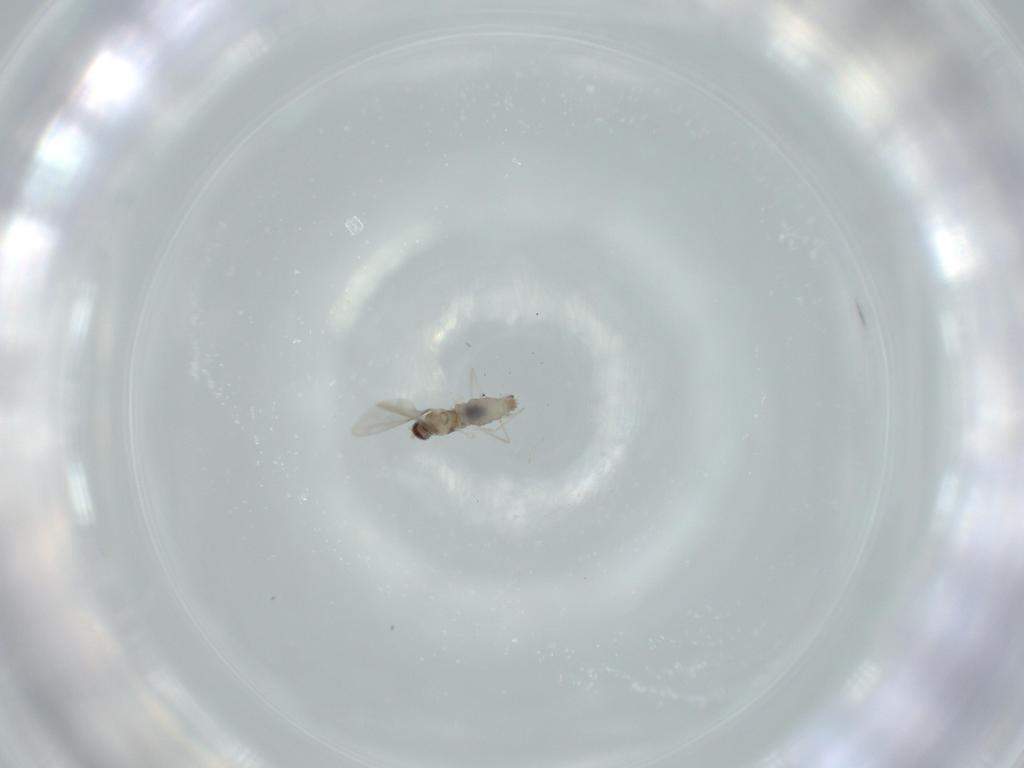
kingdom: Animalia
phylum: Arthropoda
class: Insecta
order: Diptera
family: Cecidomyiidae
